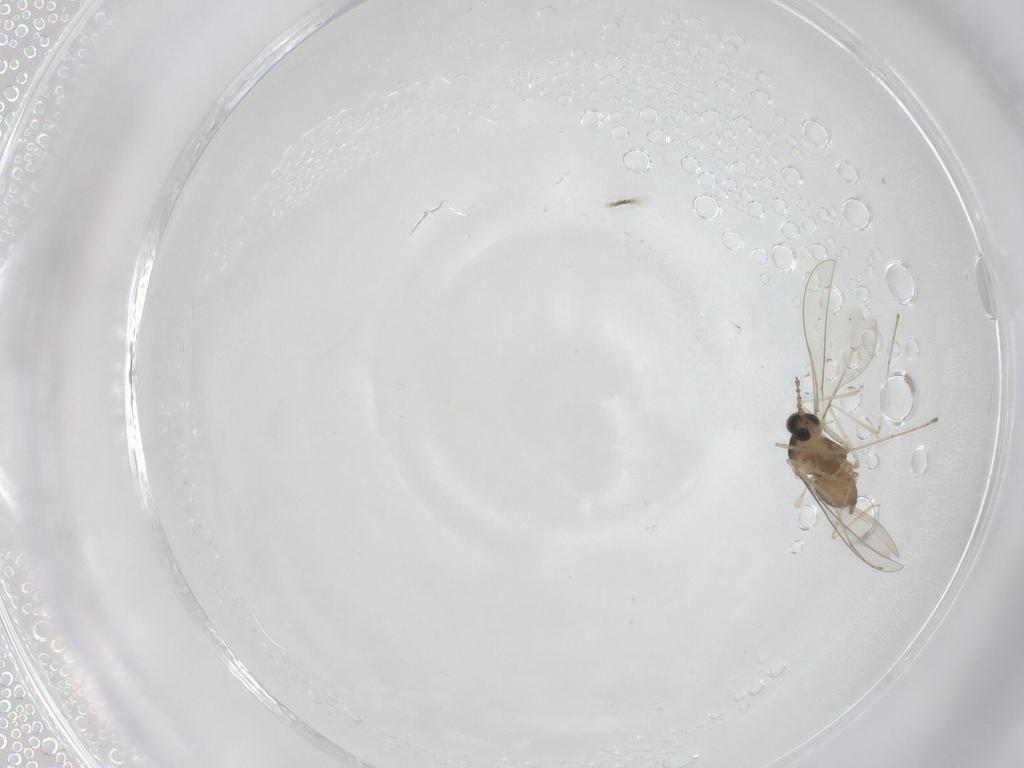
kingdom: Animalia
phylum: Arthropoda
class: Insecta
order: Diptera
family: Cecidomyiidae
